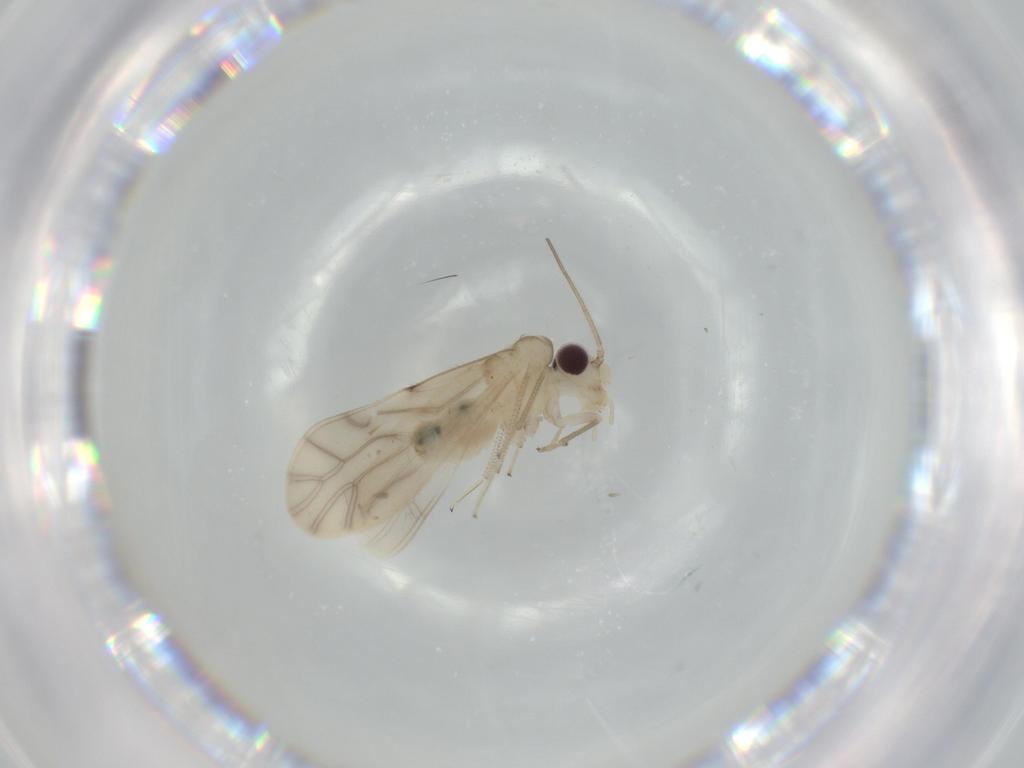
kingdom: Animalia
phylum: Arthropoda
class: Insecta
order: Psocodea
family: Caeciliusidae
